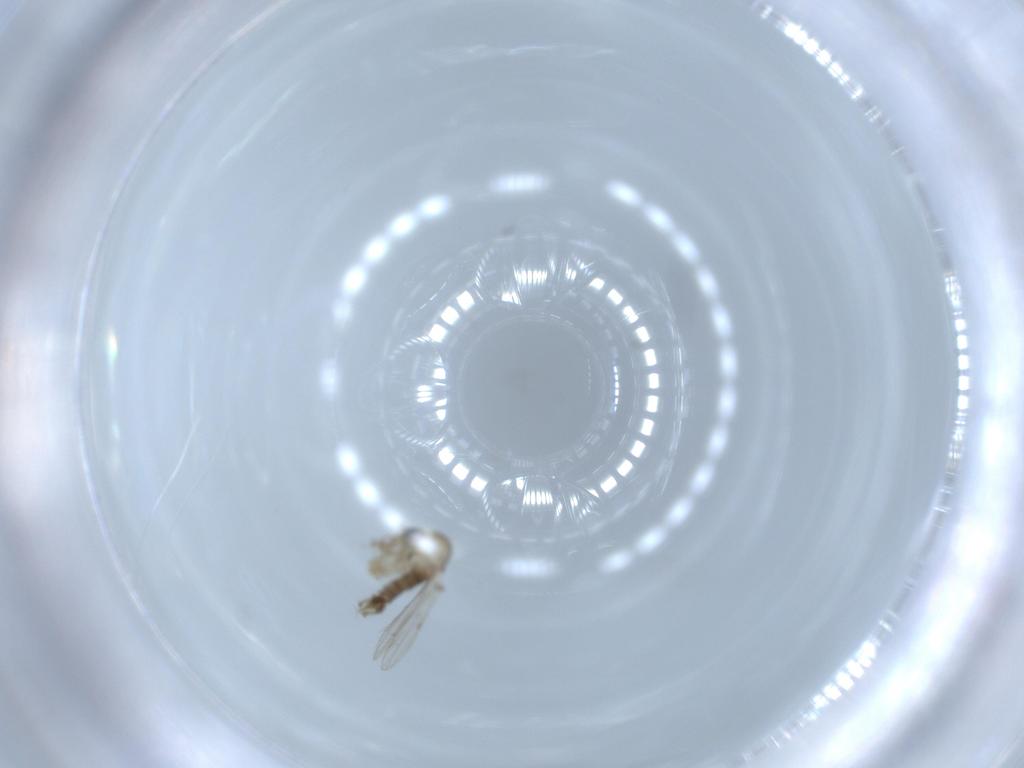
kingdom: Animalia
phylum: Arthropoda
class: Insecta
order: Diptera
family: Psychodidae
